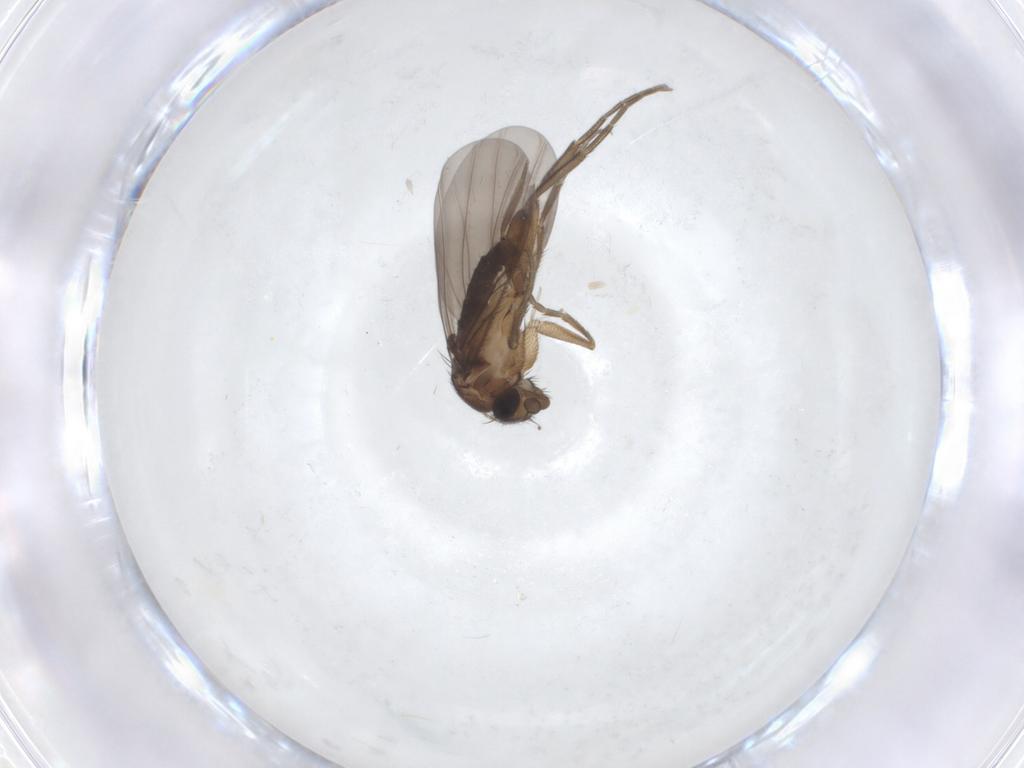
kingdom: Animalia
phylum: Arthropoda
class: Insecta
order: Diptera
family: Phoridae
